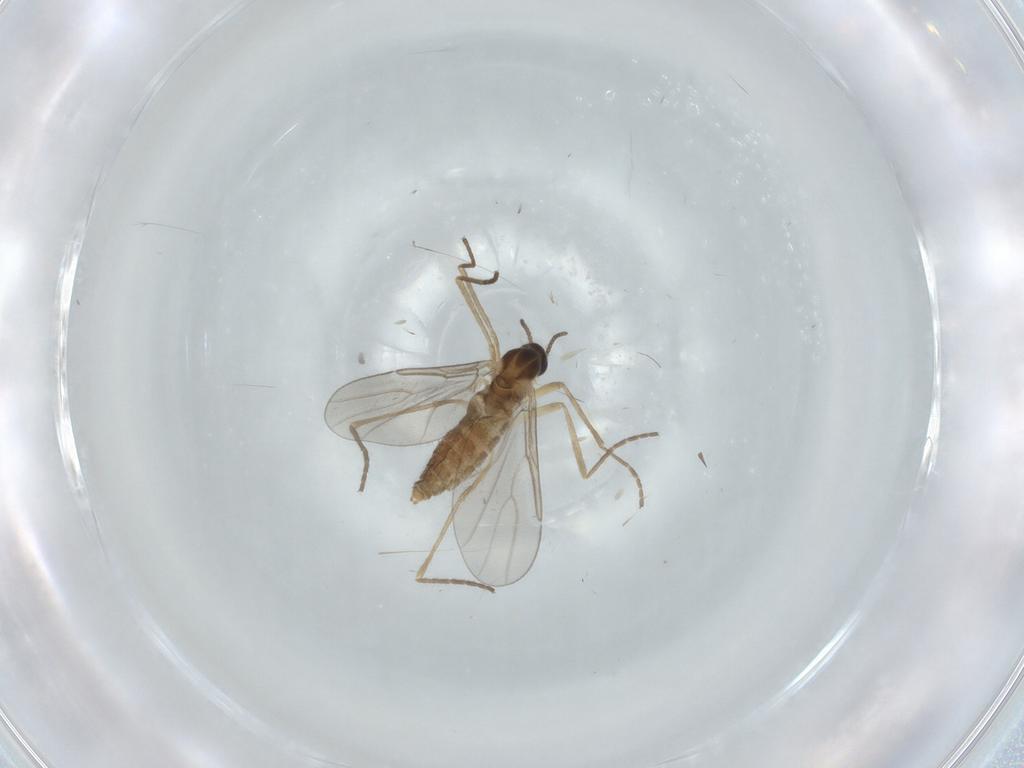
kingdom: Animalia
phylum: Arthropoda
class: Insecta
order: Diptera
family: Cecidomyiidae
